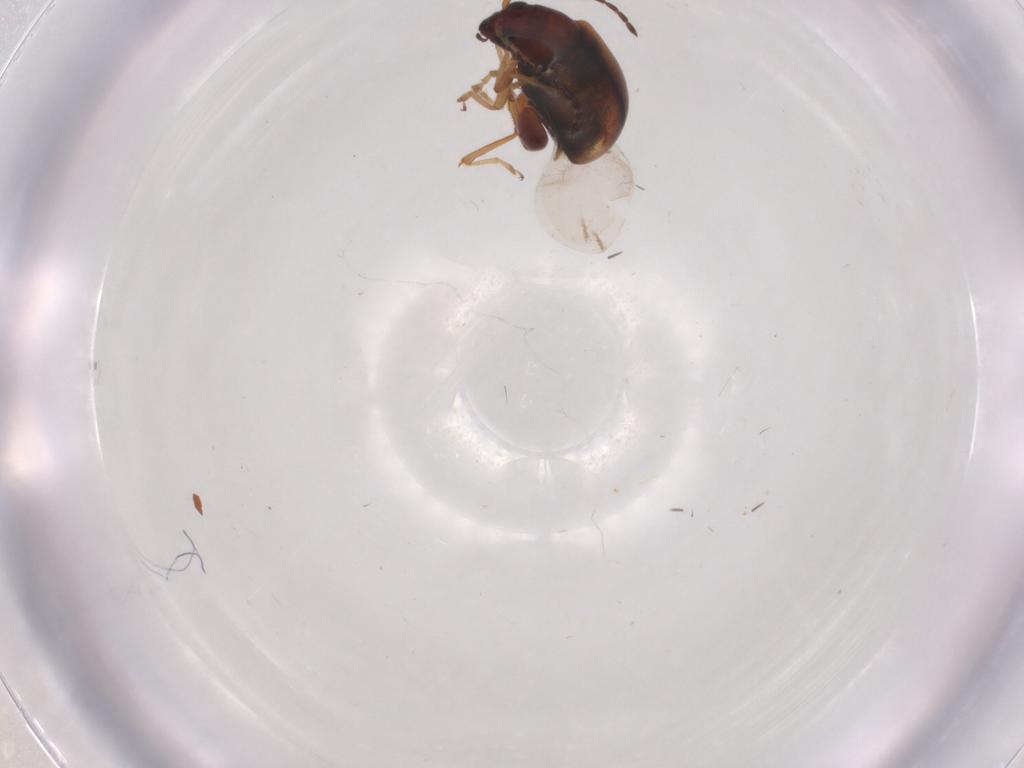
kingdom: Animalia
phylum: Arthropoda
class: Insecta
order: Coleoptera
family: Chrysomelidae
